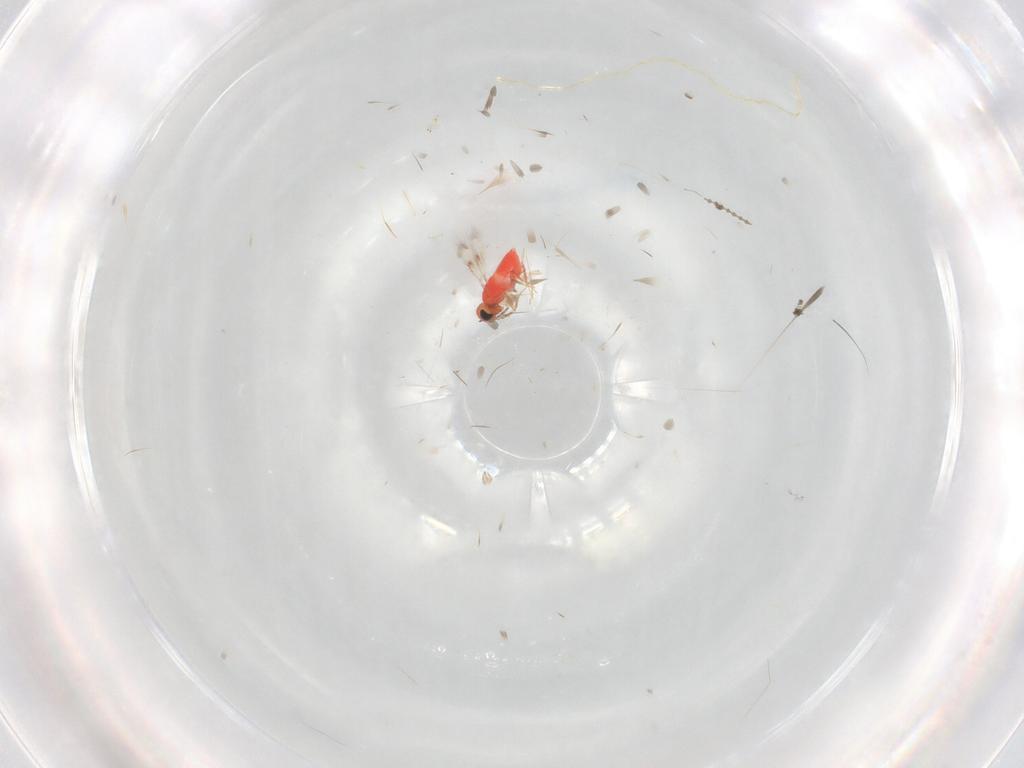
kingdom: Animalia
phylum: Arthropoda
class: Insecta
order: Hymenoptera
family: Trichogrammatidae
